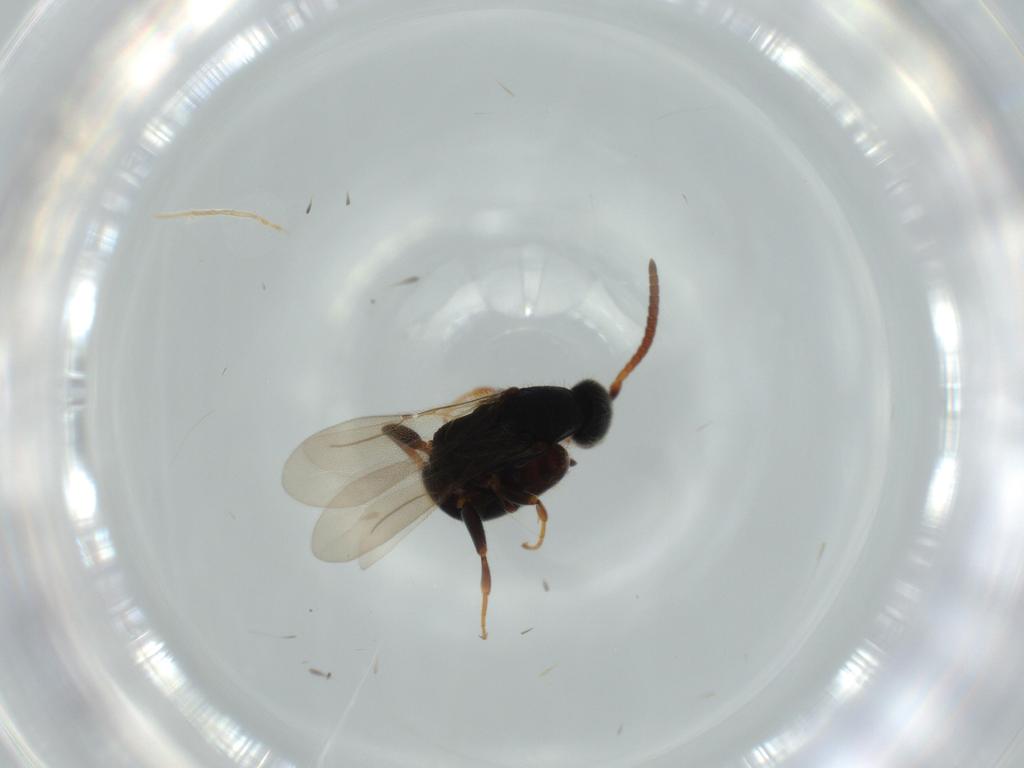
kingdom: Animalia
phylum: Arthropoda
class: Insecta
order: Hymenoptera
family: Bethylidae
